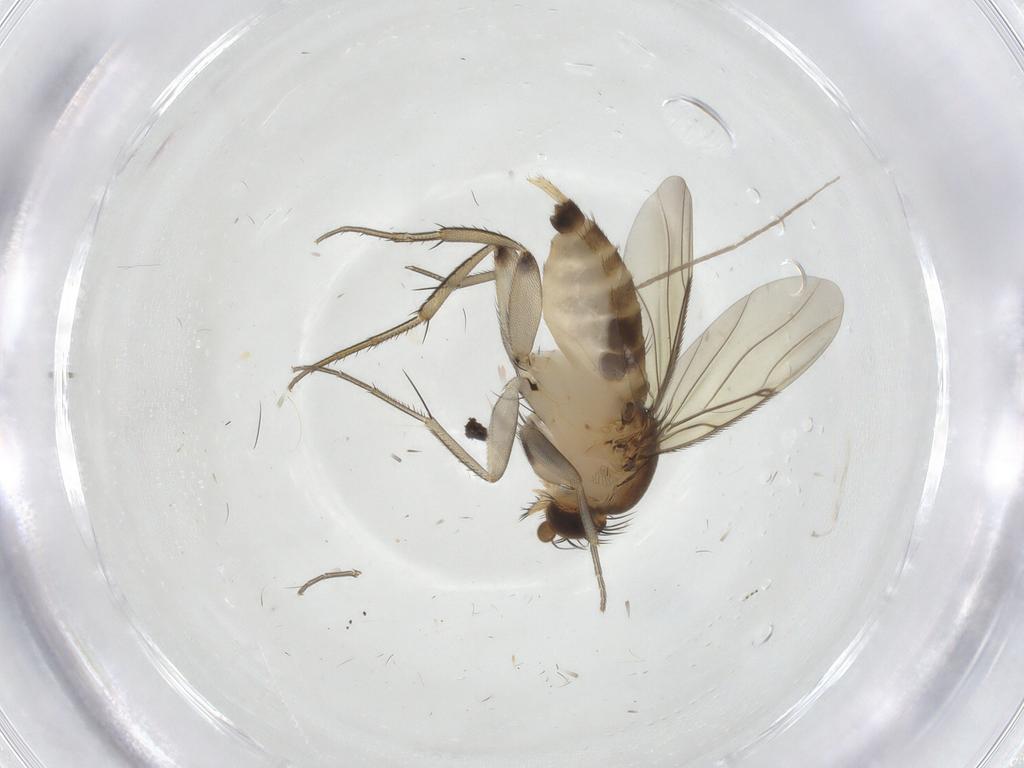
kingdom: Animalia
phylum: Arthropoda
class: Insecta
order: Diptera
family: Phoridae
